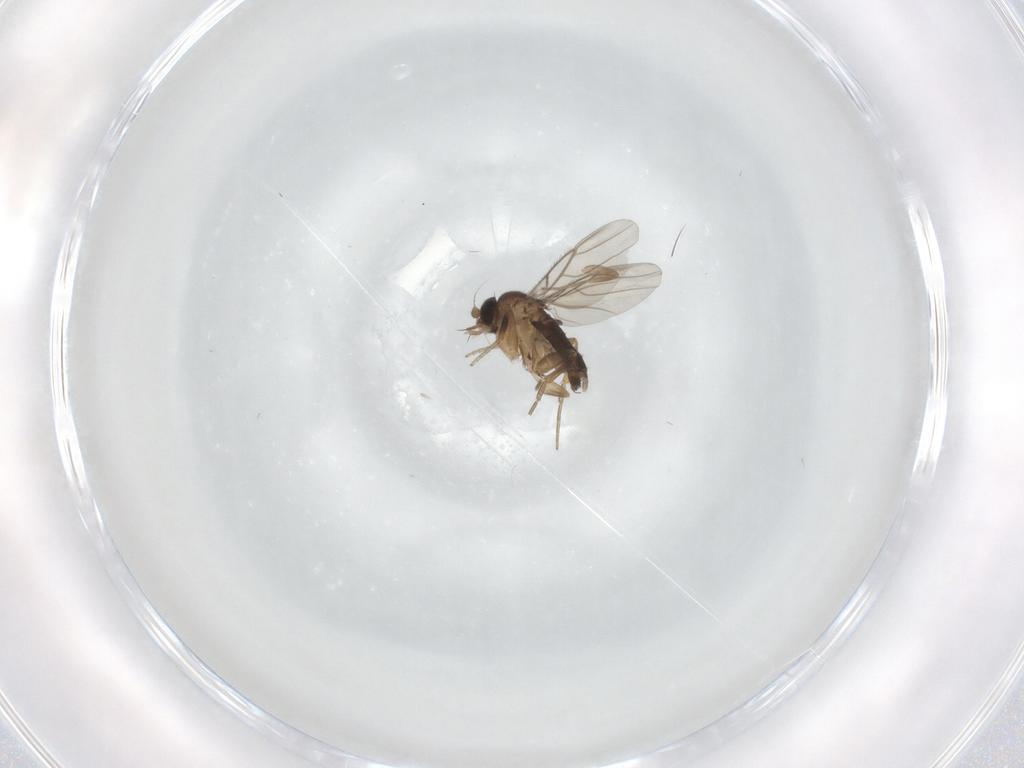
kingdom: Animalia
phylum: Arthropoda
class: Insecta
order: Diptera
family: Phoridae
